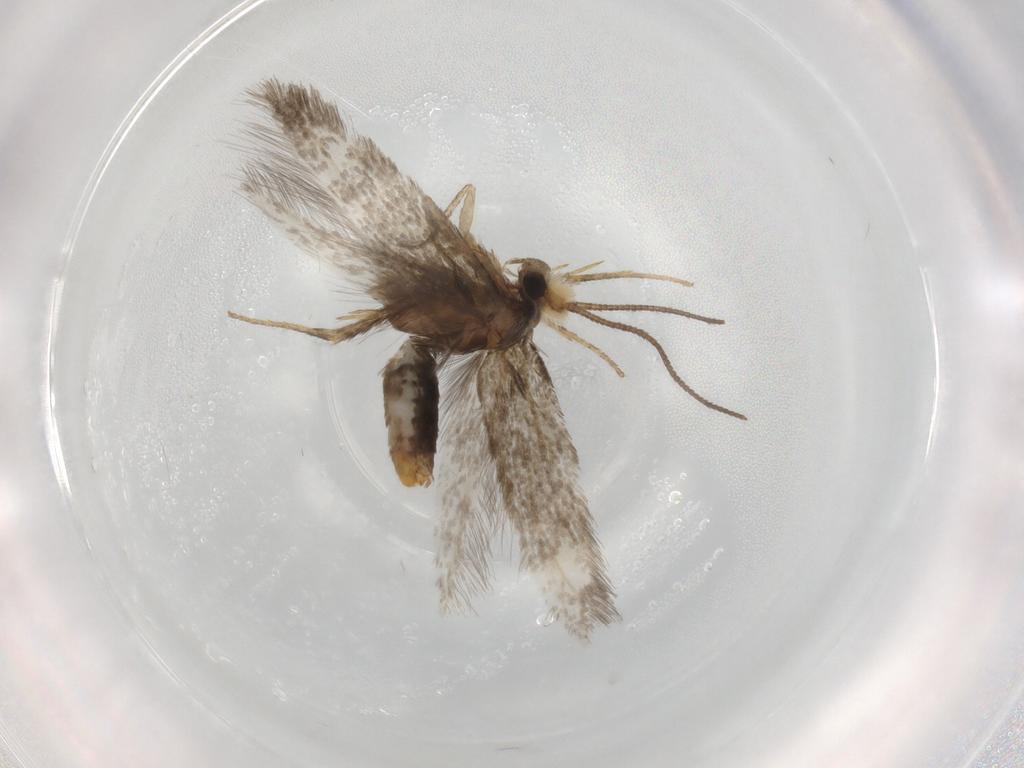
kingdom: Animalia
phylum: Arthropoda
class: Insecta
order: Lepidoptera
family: Nepticulidae
